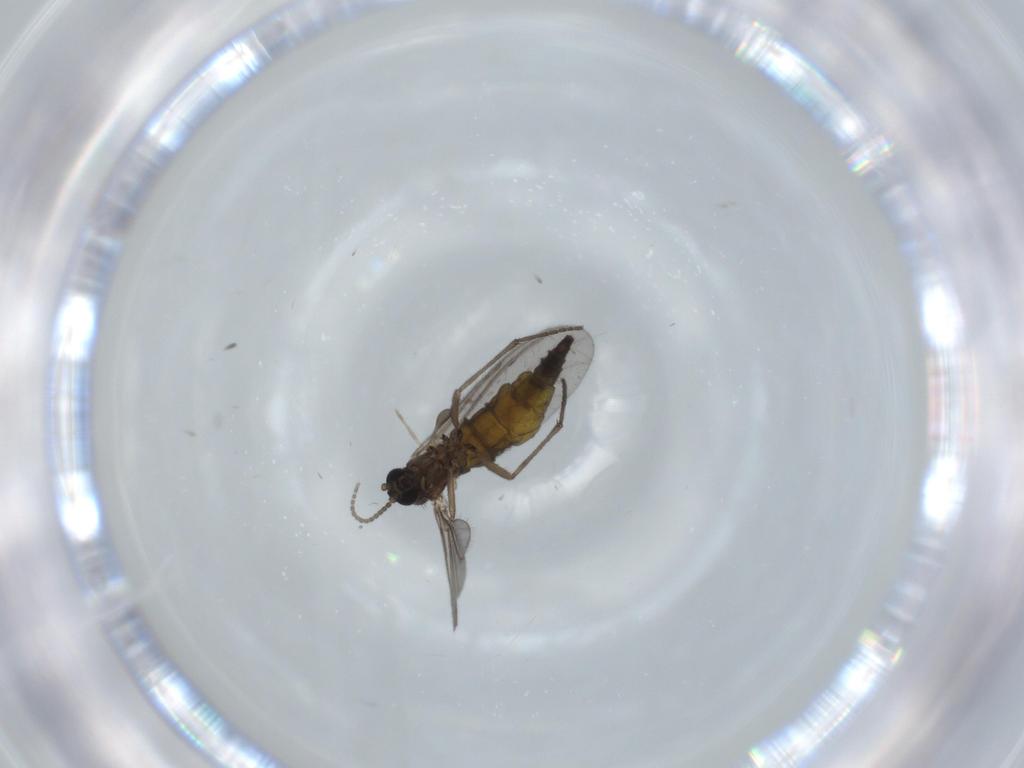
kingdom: Animalia
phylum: Arthropoda
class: Insecta
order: Diptera
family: Sciaridae
